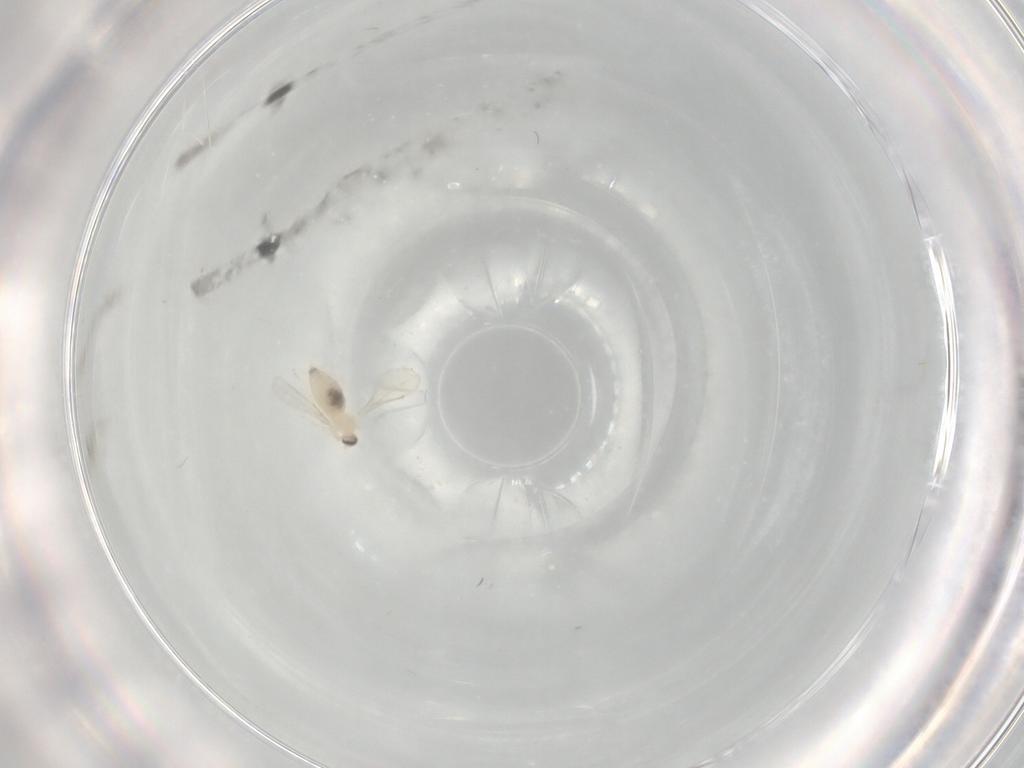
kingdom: Animalia
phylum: Arthropoda
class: Insecta
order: Diptera
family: Cecidomyiidae
